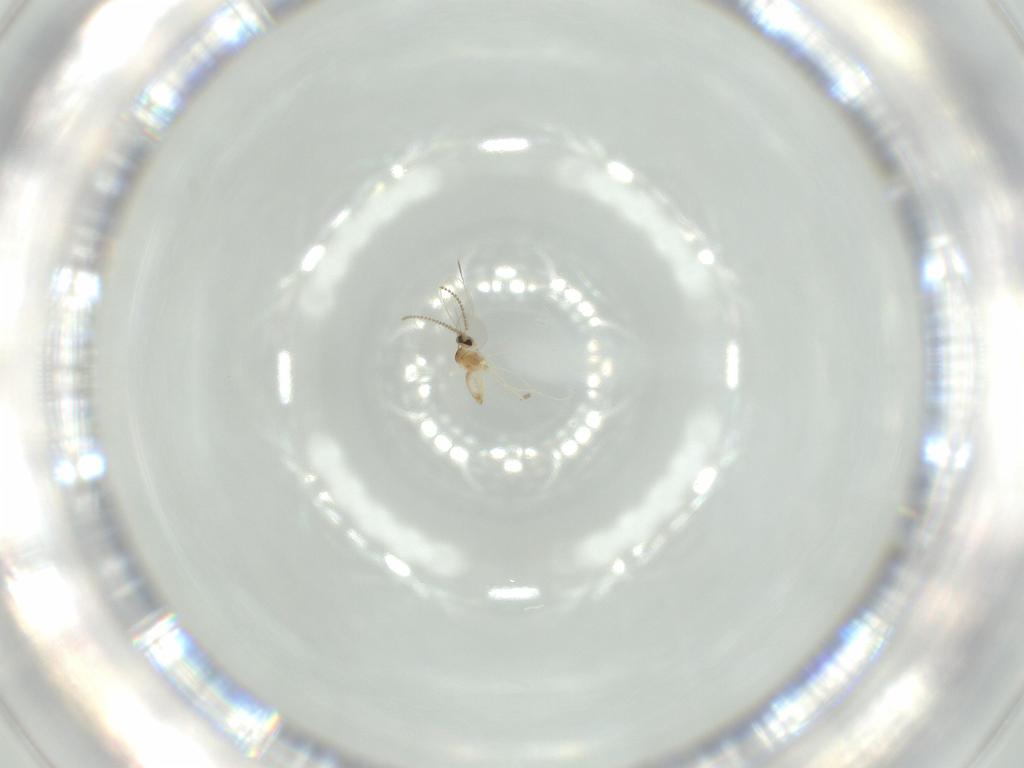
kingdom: Animalia
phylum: Arthropoda
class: Insecta
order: Diptera
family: Cecidomyiidae
